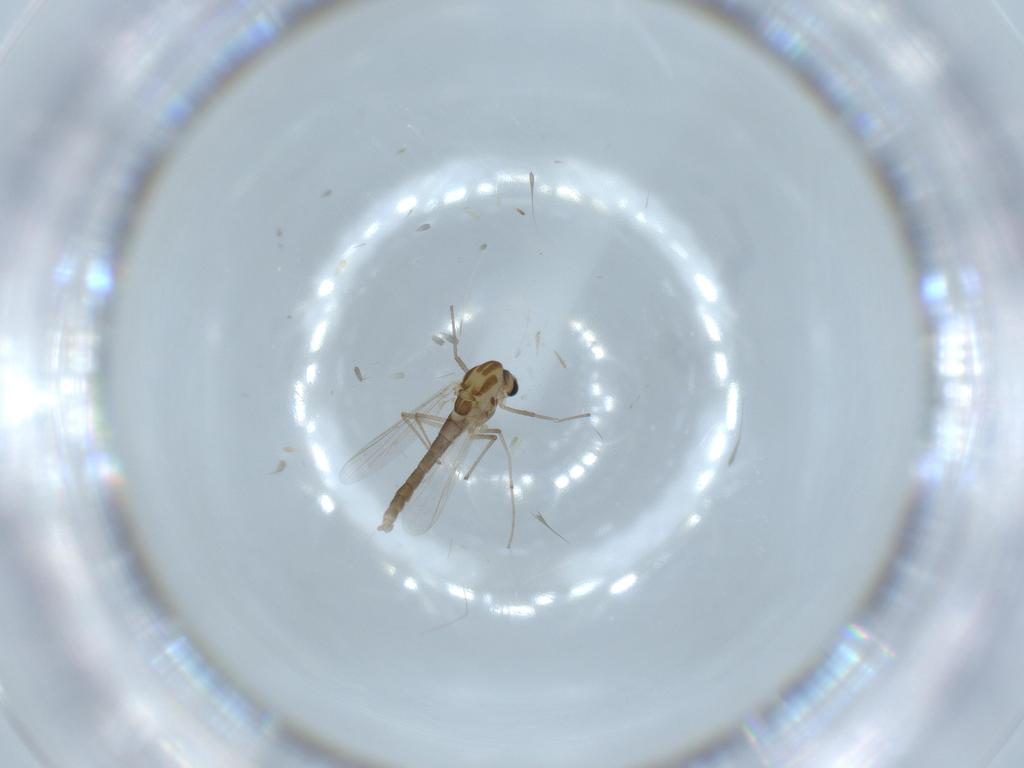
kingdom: Animalia
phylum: Arthropoda
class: Insecta
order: Diptera
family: Chironomidae
